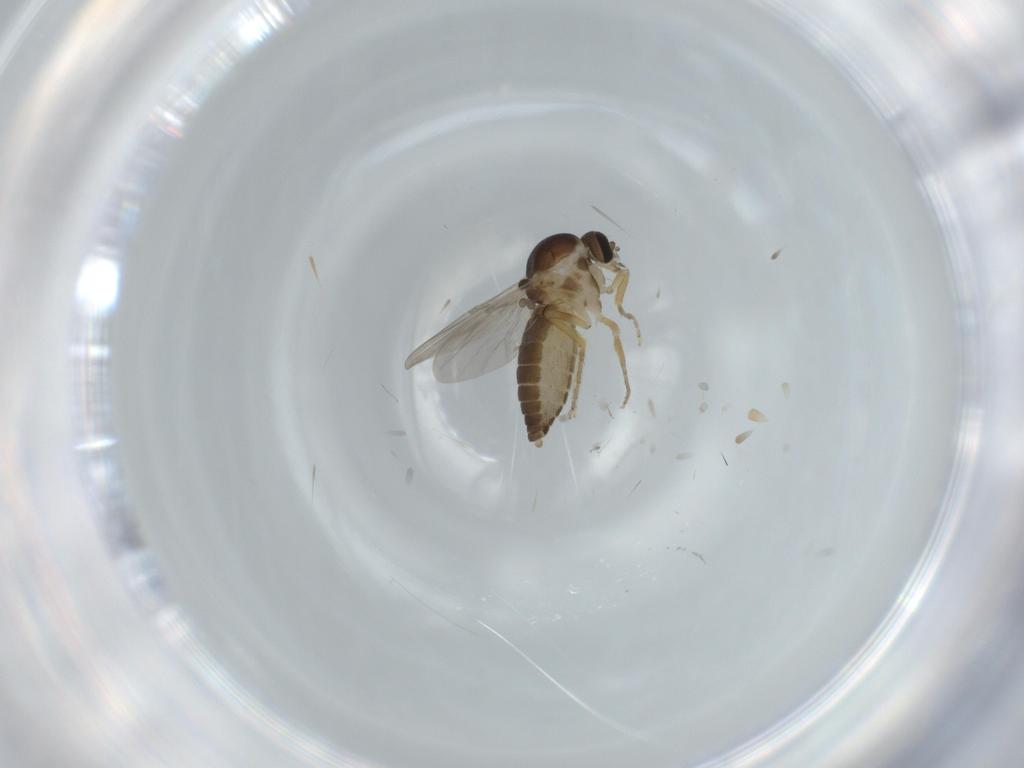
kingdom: Animalia
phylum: Arthropoda
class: Insecta
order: Diptera
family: Ceratopogonidae
